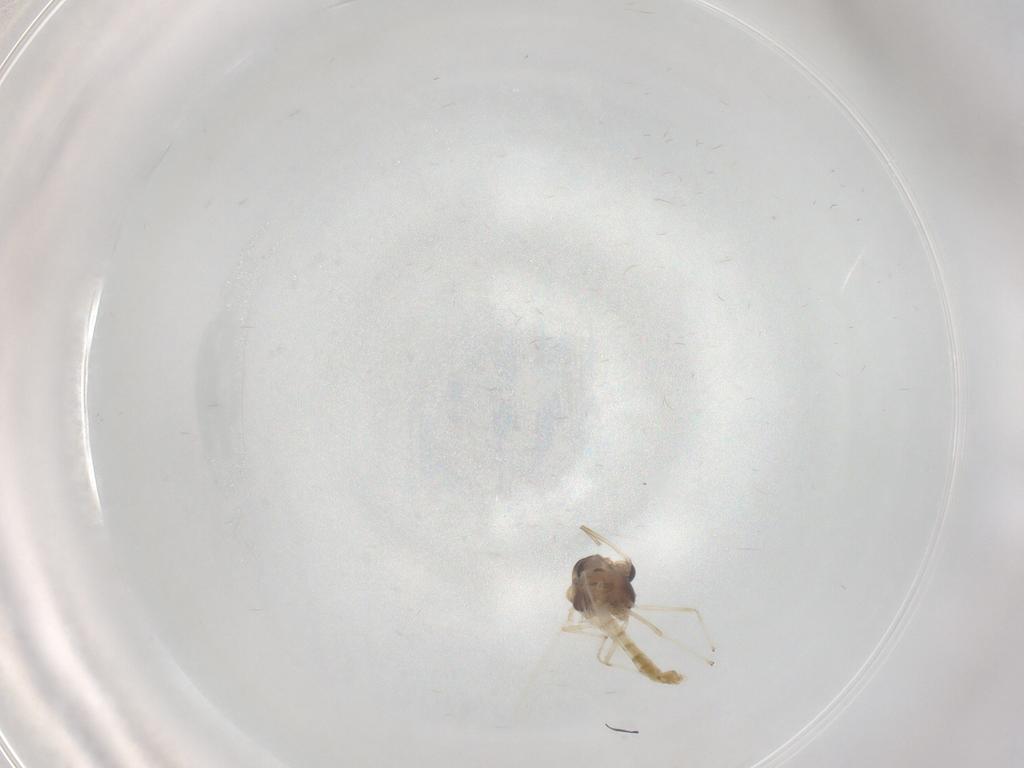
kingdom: Animalia
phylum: Arthropoda
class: Insecta
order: Diptera
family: Chironomidae
